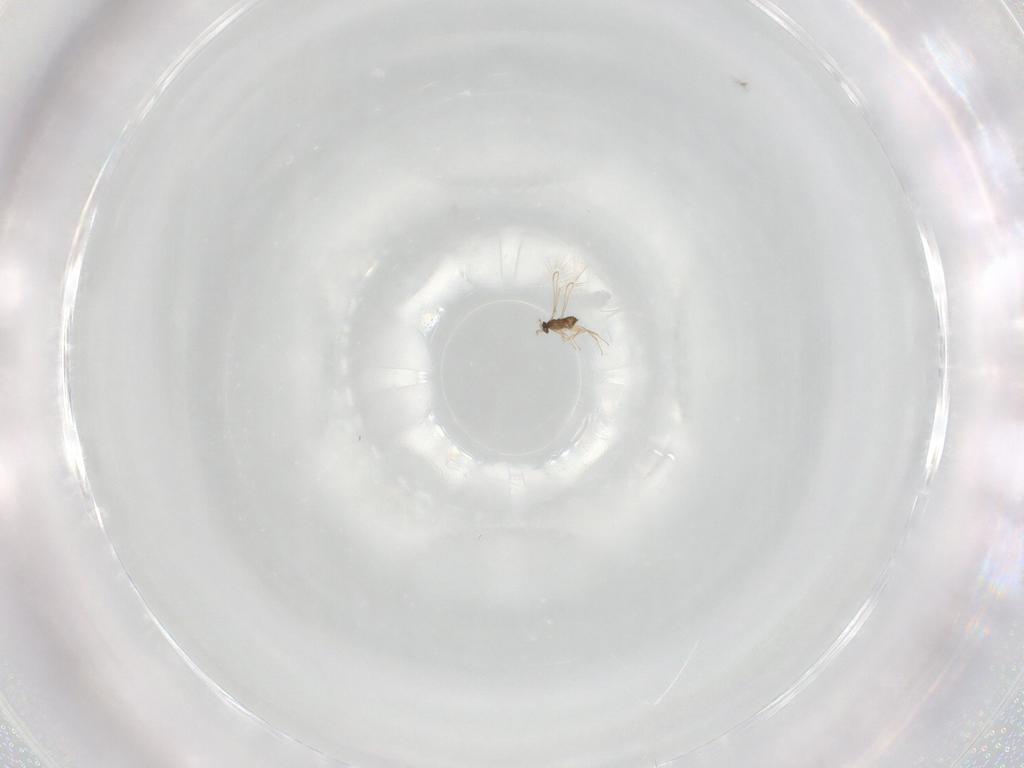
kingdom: Animalia
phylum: Arthropoda
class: Insecta
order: Hymenoptera
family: Mymaridae
